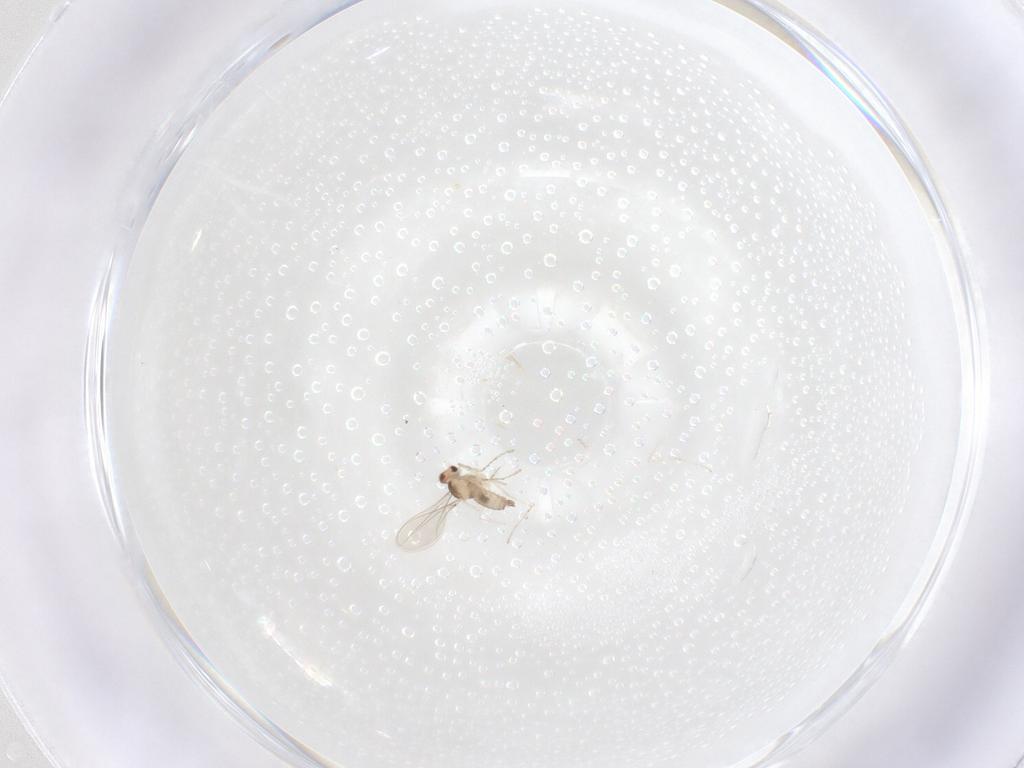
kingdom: Animalia
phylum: Arthropoda
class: Insecta
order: Diptera
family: Cecidomyiidae
